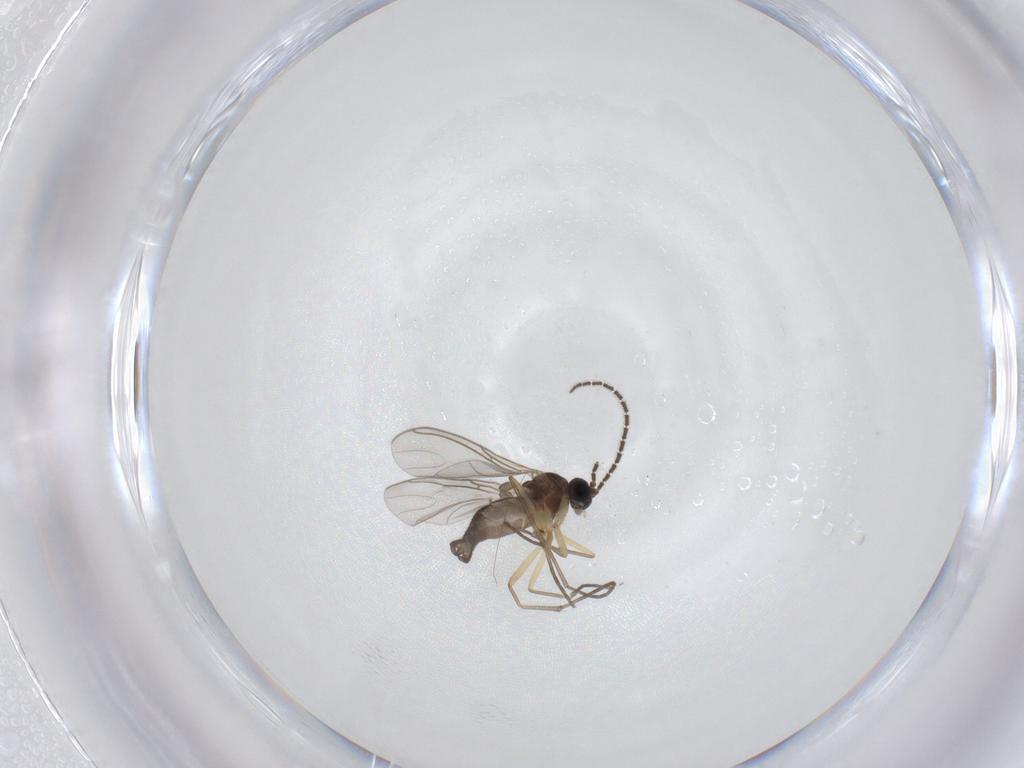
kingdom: Animalia
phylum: Arthropoda
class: Insecta
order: Diptera
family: Sciaridae
